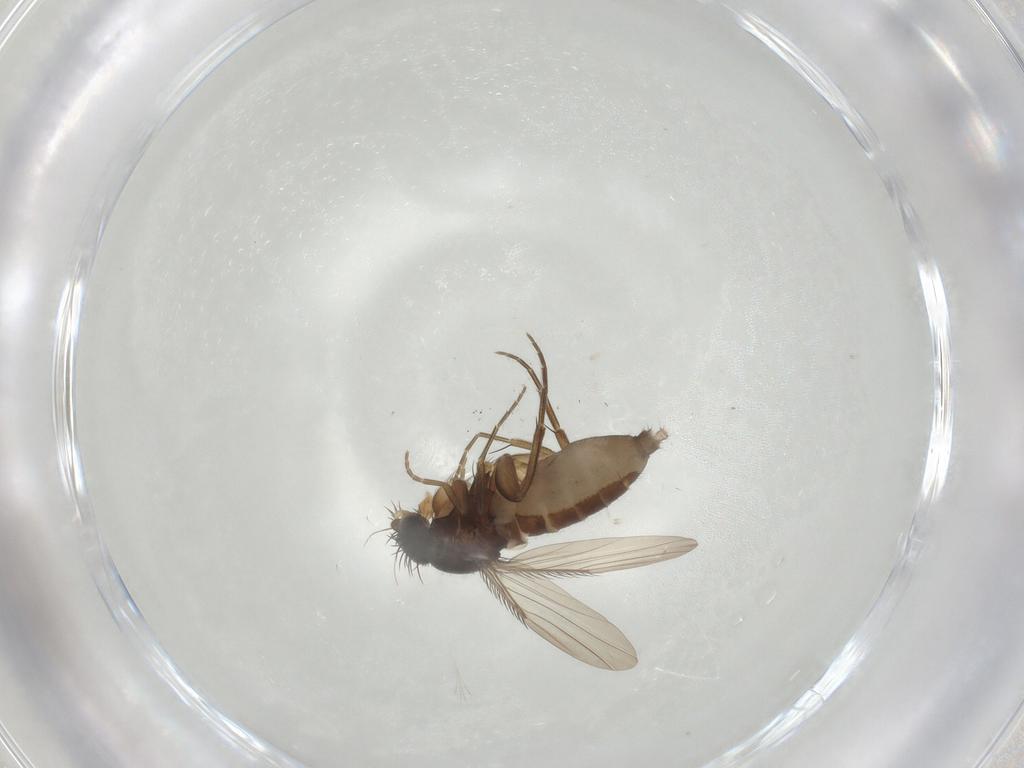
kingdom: Animalia
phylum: Arthropoda
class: Insecta
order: Diptera
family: Phoridae
